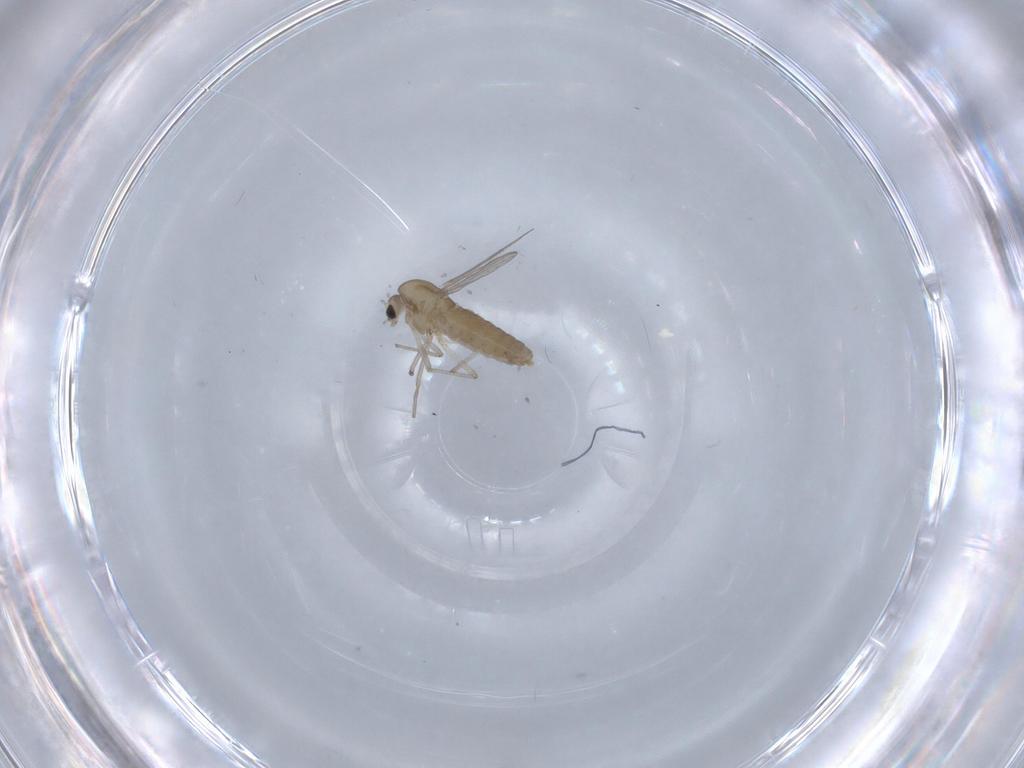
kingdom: Animalia
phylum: Arthropoda
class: Insecta
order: Diptera
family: Chironomidae
